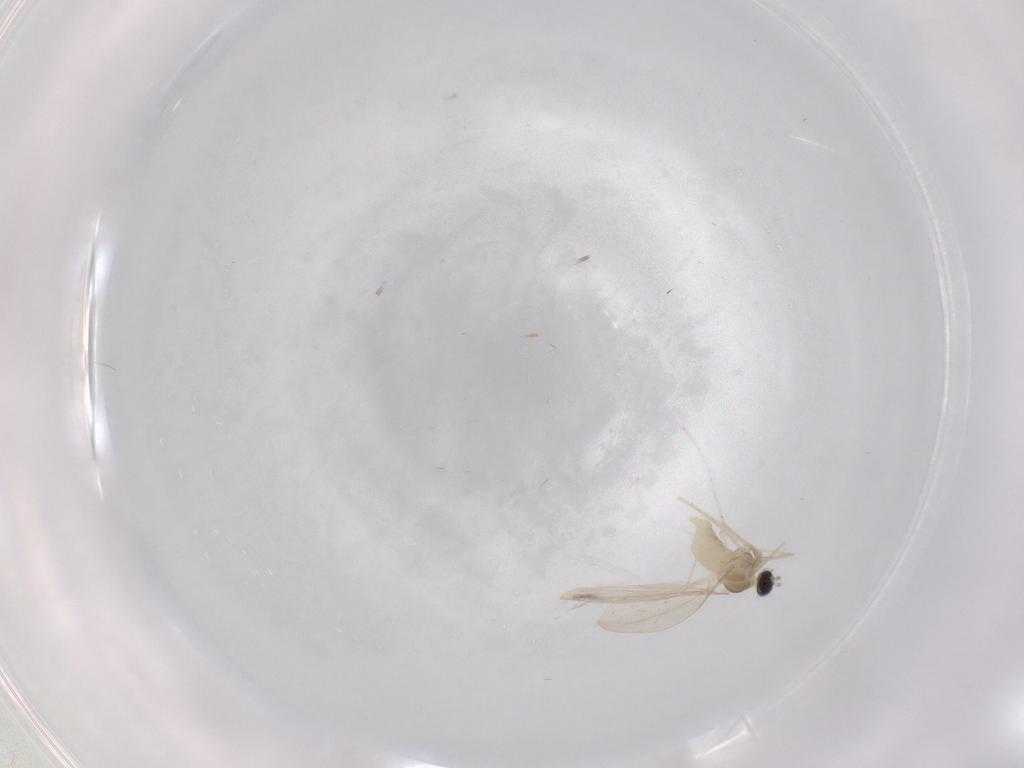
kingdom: Animalia
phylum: Arthropoda
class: Insecta
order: Diptera
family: Cecidomyiidae
